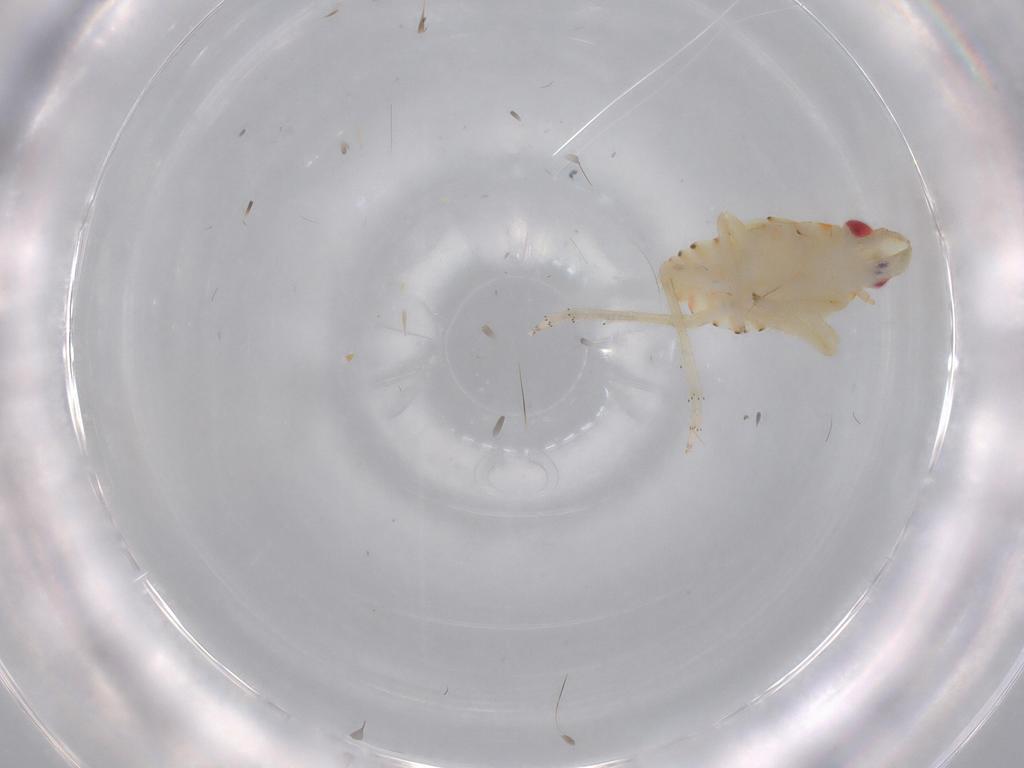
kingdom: Animalia
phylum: Arthropoda
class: Insecta
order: Hemiptera
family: Tropiduchidae
